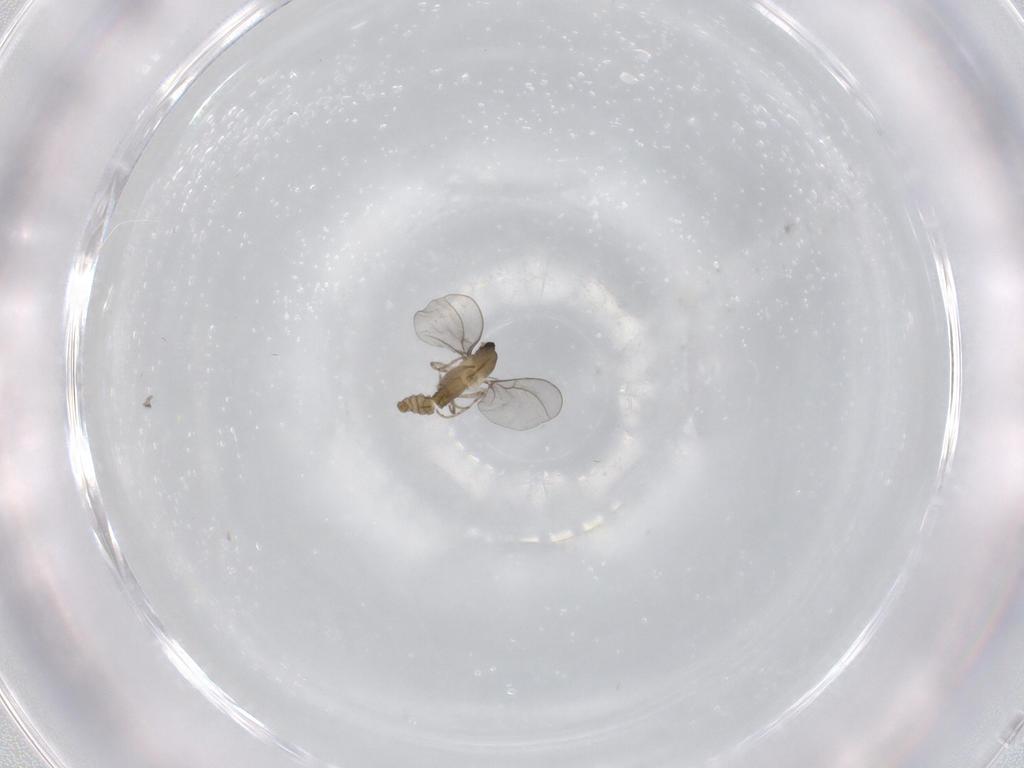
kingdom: Animalia
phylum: Arthropoda
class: Insecta
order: Diptera
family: Cecidomyiidae
